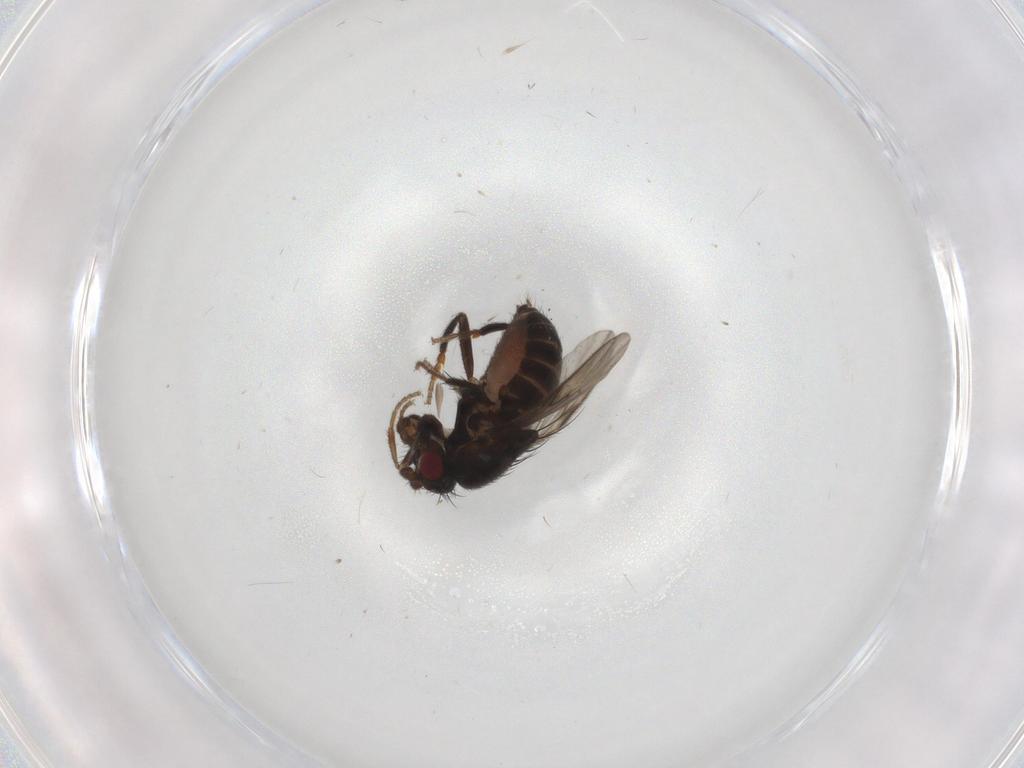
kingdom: Animalia
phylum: Arthropoda
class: Insecta
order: Diptera
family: Sphaeroceridae
